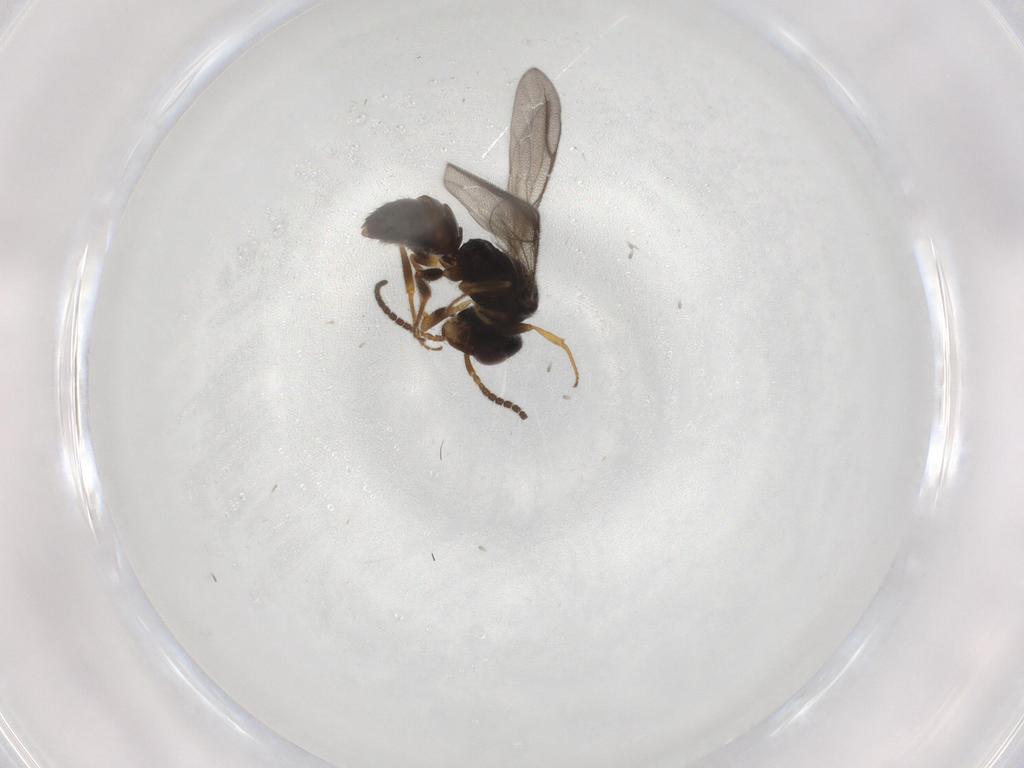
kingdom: Animalia
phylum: Arthropoda
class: Insecta
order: Hymenoptera
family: Bethylidae
